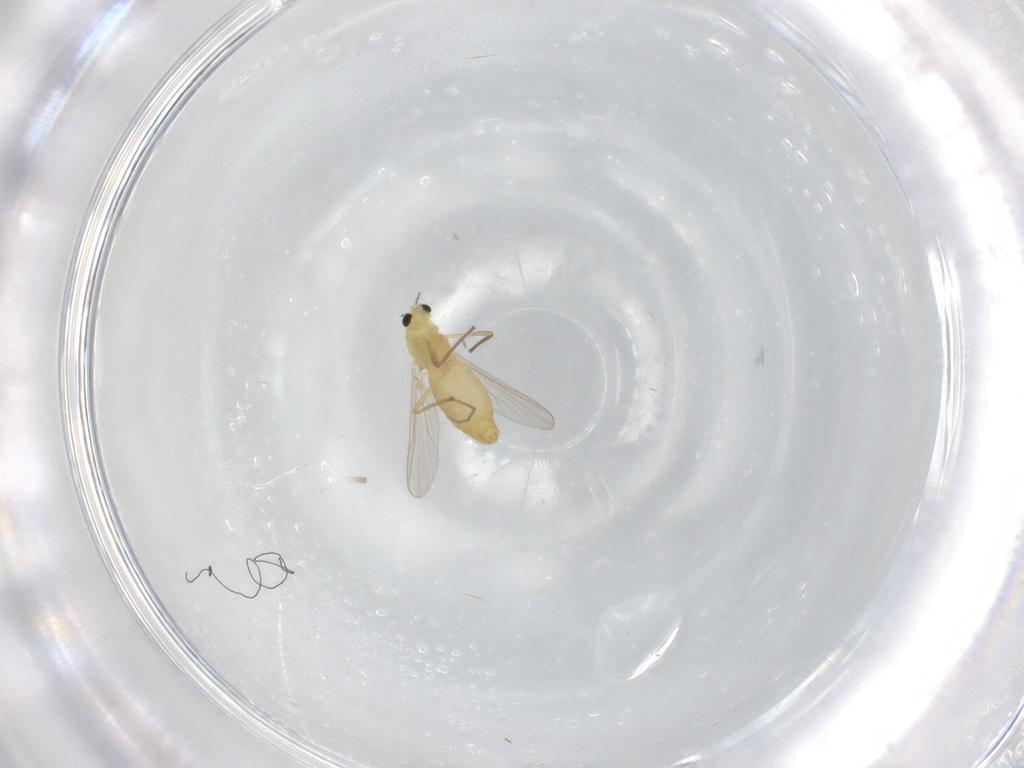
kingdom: Animalia
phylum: Arthropoda
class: Insecta
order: Diptera
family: Chironomidae
